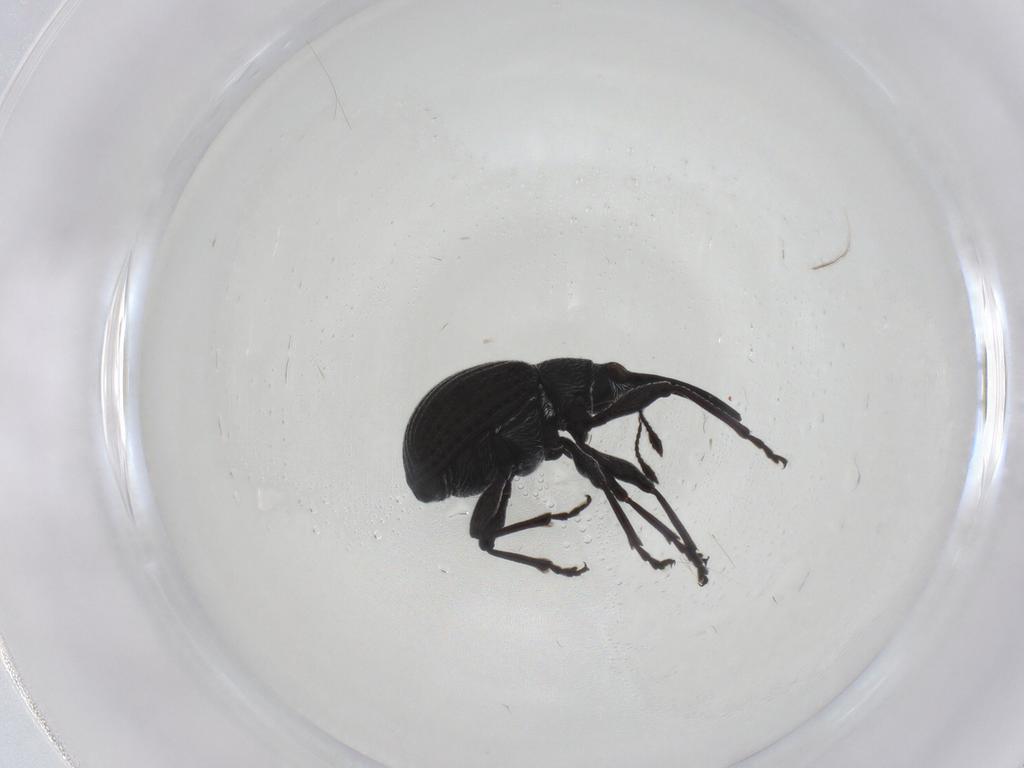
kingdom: Animalia
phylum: Arthropoda
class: Insecta
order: Coleoptera
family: Brentidae
